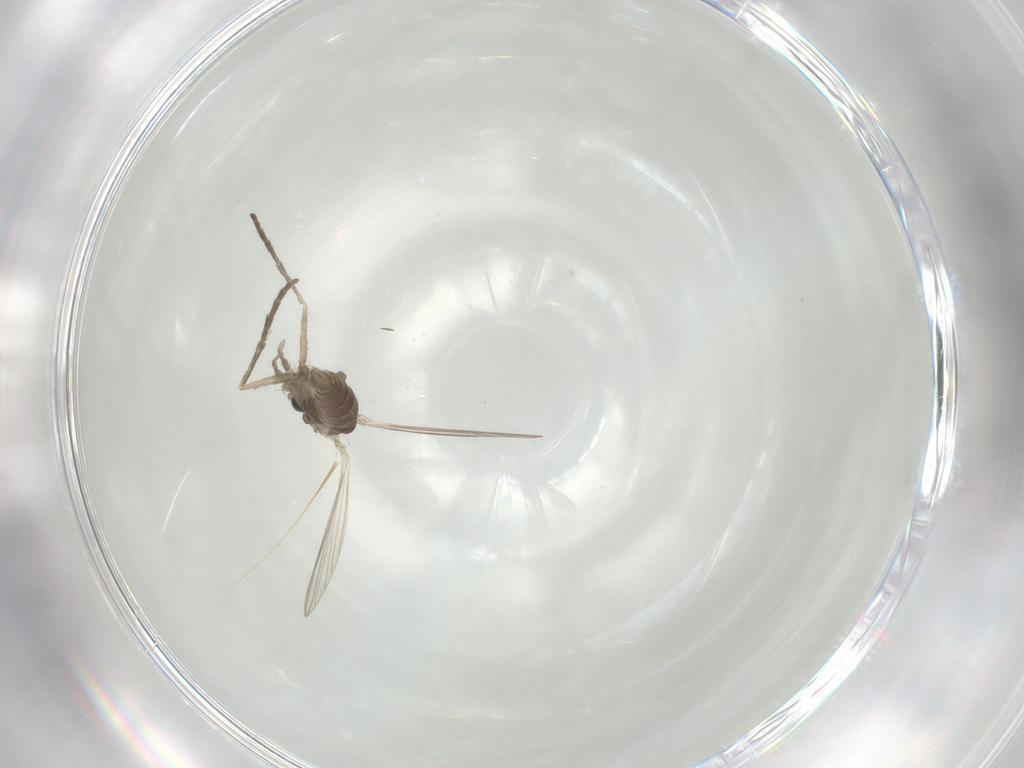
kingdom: Animalia
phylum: Arthropoda
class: Insecta
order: Diptera
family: Psychodidae
